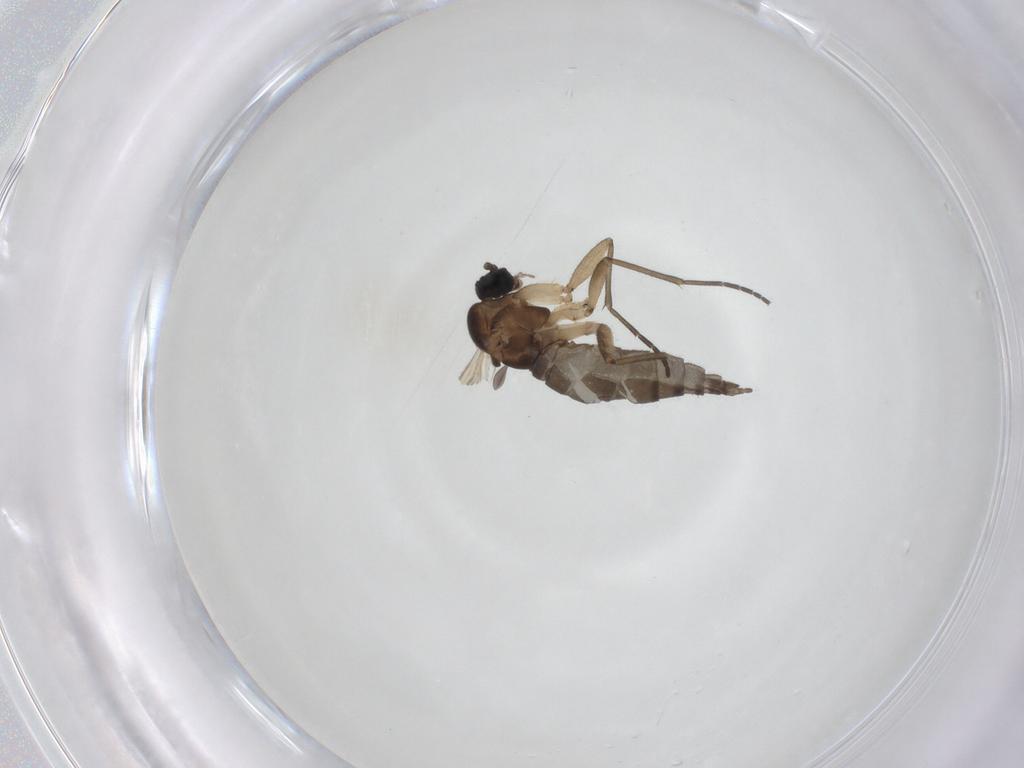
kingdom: Animalia
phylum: Arthropoda
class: Insecta
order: Diptera
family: Sciaridae
